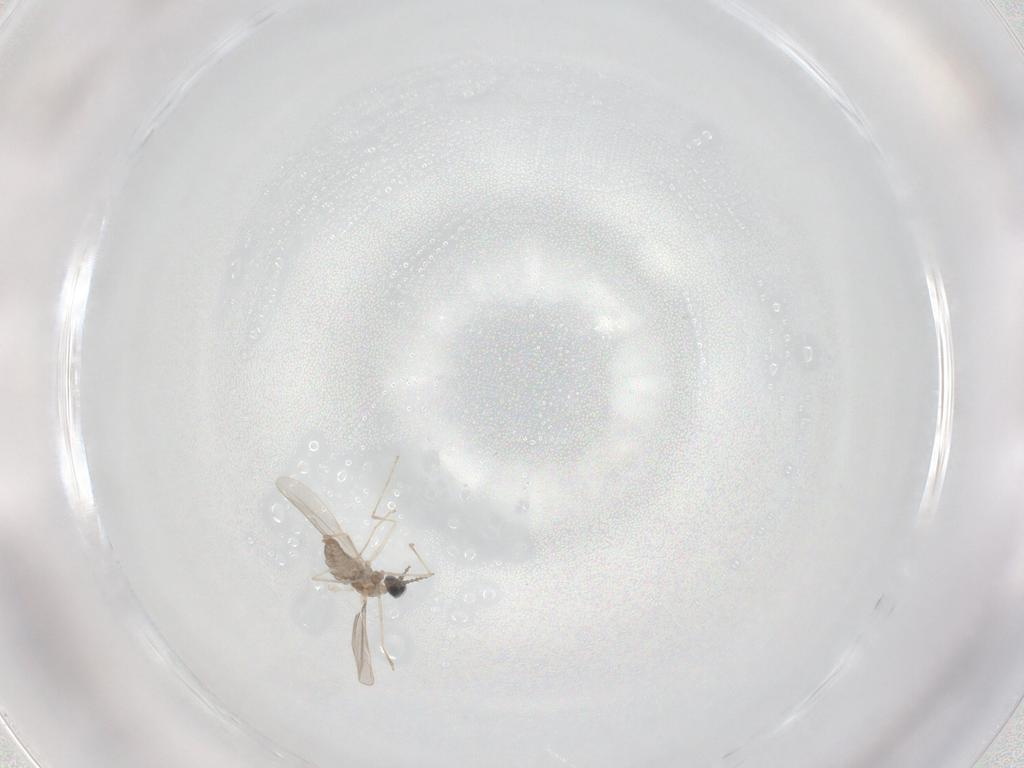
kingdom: Animalia
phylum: Arthropoda
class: Insecta
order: Diptera
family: Cecidomyiidae
